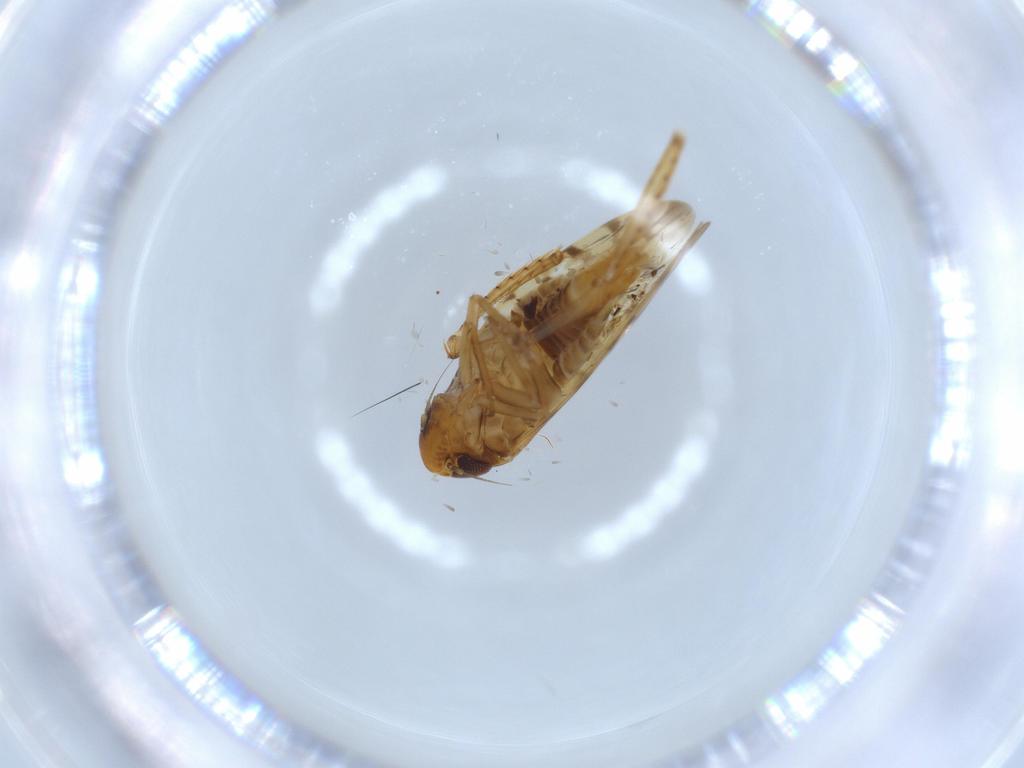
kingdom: Animalia
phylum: Arthropoda
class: Insecta
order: Hemiptera
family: Cicadellidae
